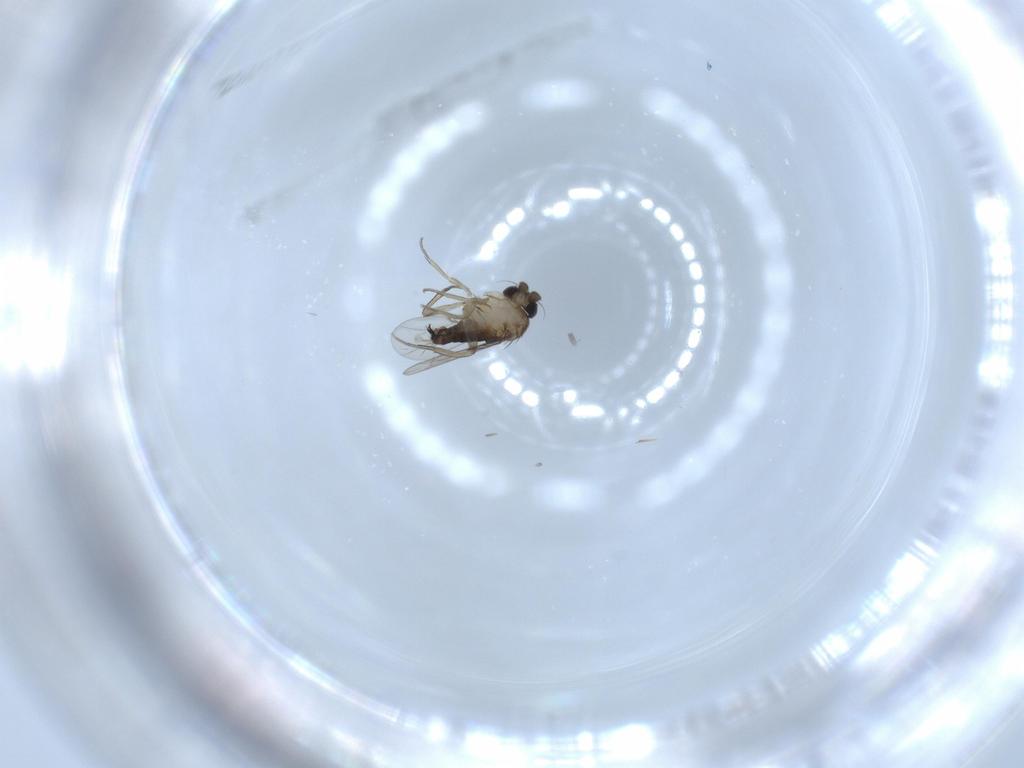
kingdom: Animalia
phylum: Arthropoda
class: Insecta
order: Diptera
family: Phoridae
